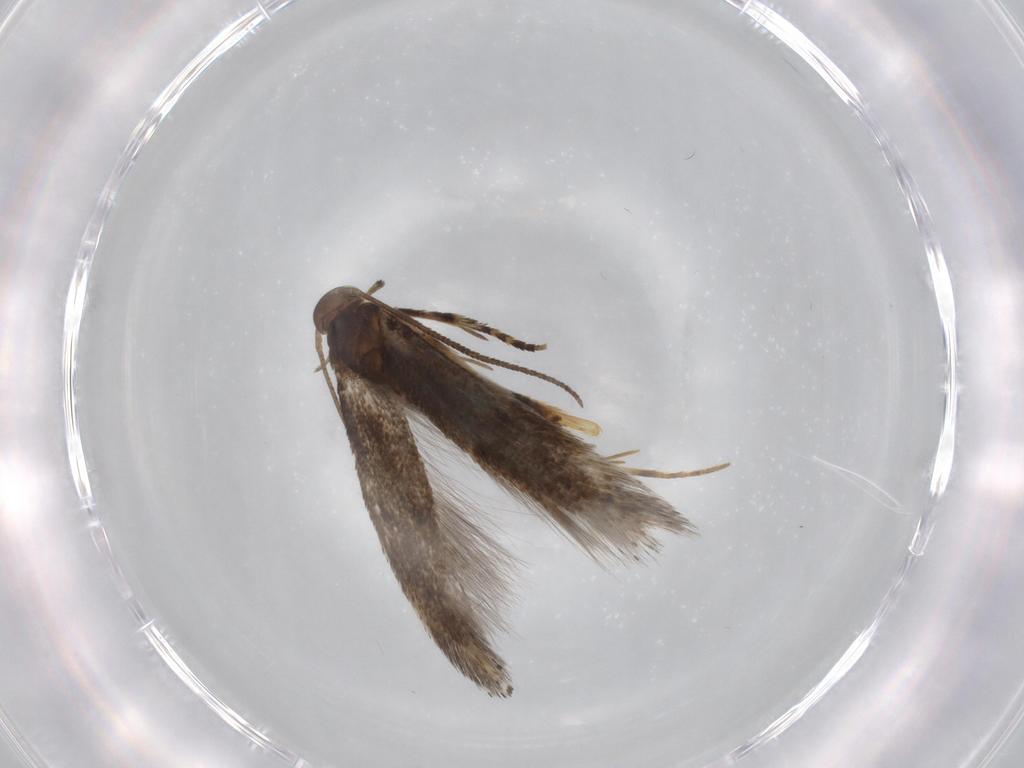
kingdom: Animalia
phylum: Arthropoda
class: Insecta
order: Lepidoptera
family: Elachistidae
